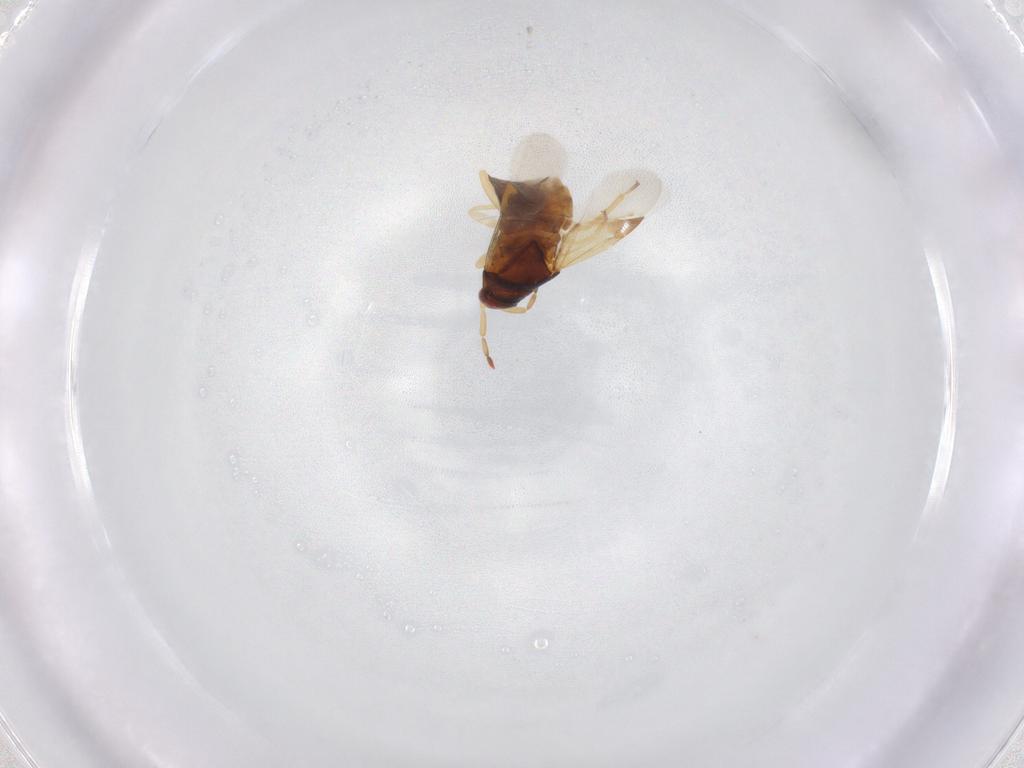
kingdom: Animalia
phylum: Arthropoda
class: Insecta
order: Hemiptera
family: Anthocoridae
